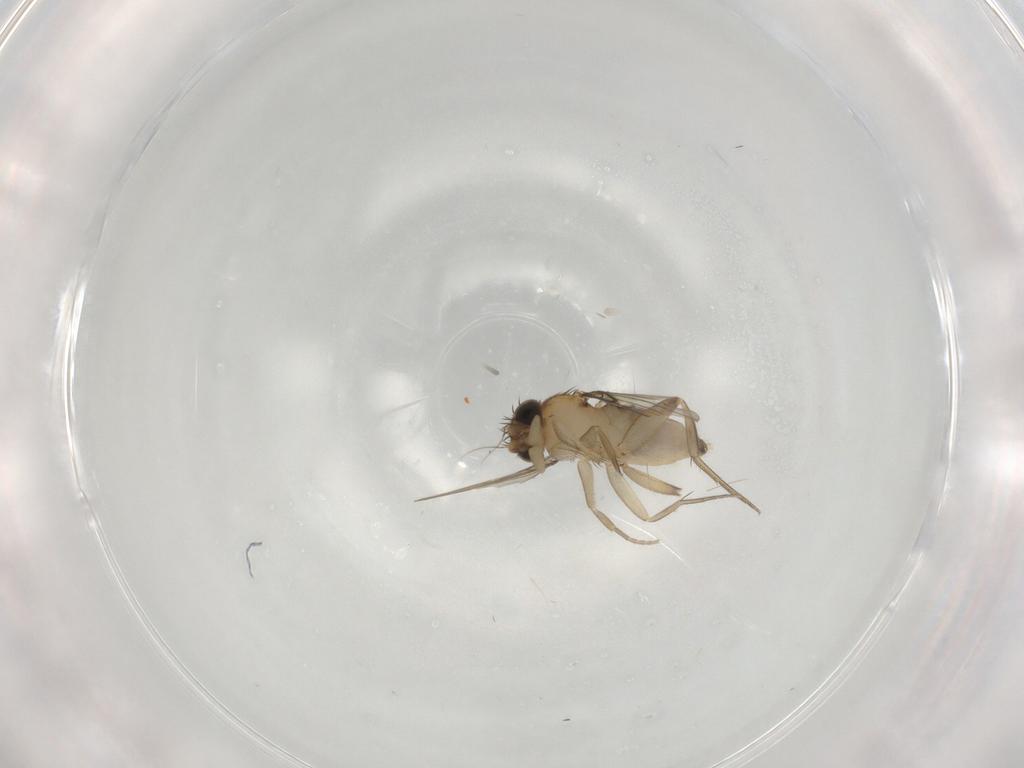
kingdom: Animalia
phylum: Arthropoda
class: Insecta
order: Diptera
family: Phoridae
